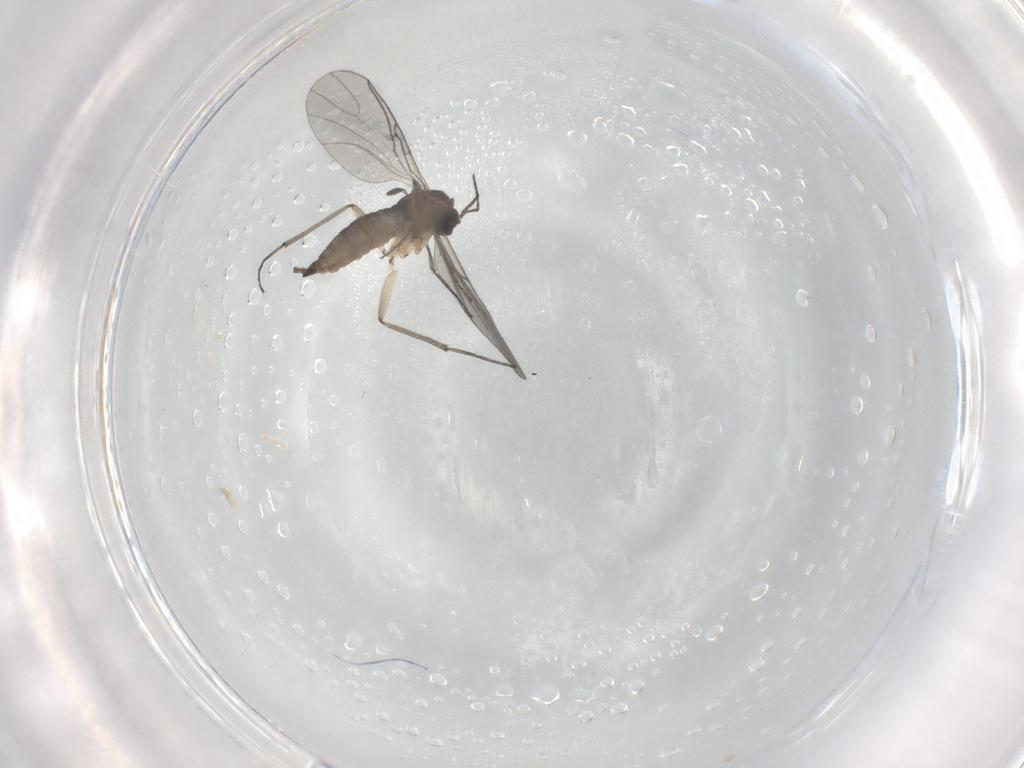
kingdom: Animalia
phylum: Arthropoda
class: Insecta
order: Diptera
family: Sciaridae
